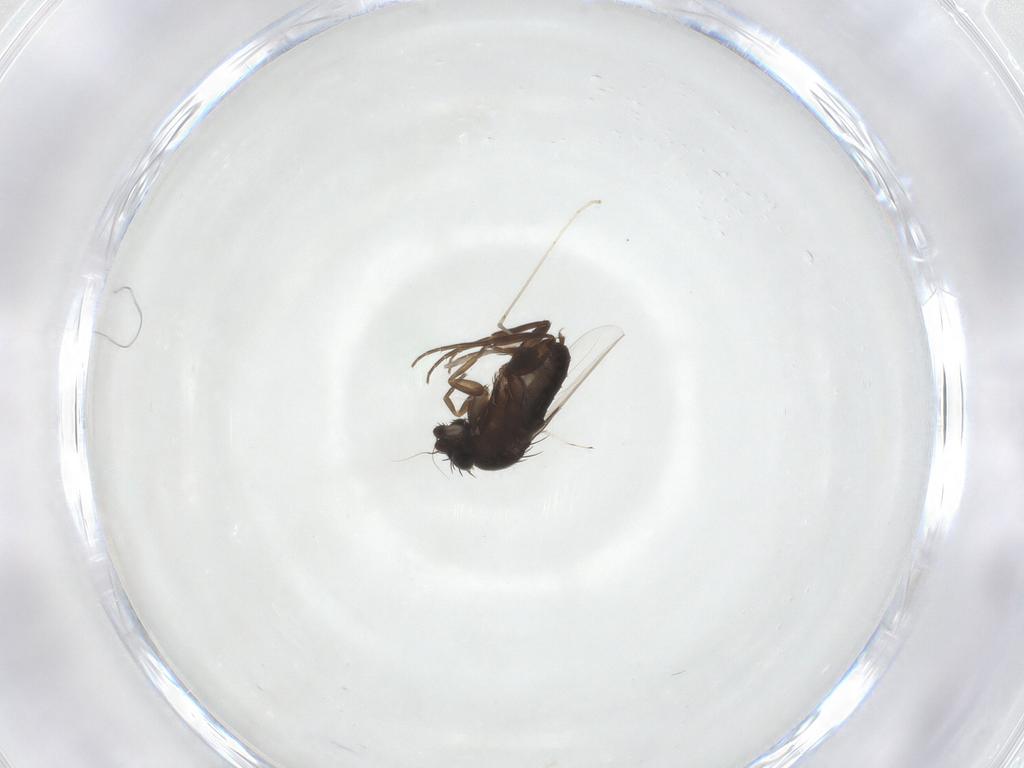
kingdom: Animalia
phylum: Arthropoda
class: Insecta
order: Diptera
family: Phoridae
